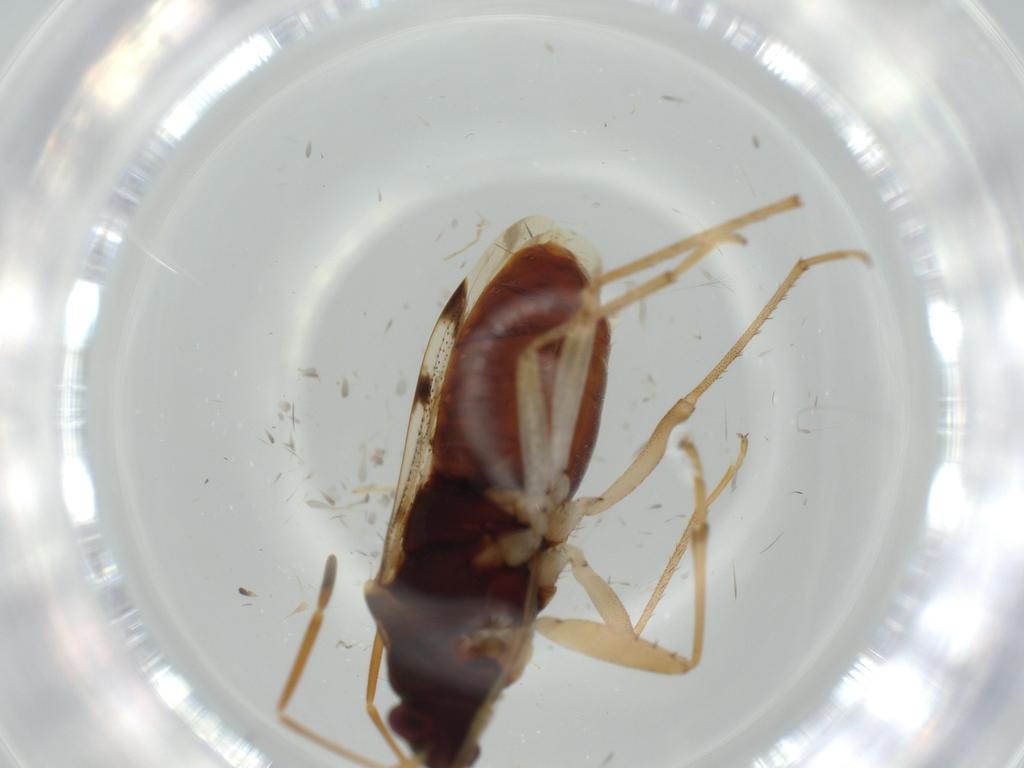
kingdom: Animalia
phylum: Arthropoda
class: Insecta
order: Hemiptera
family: Rhyparochromidae
